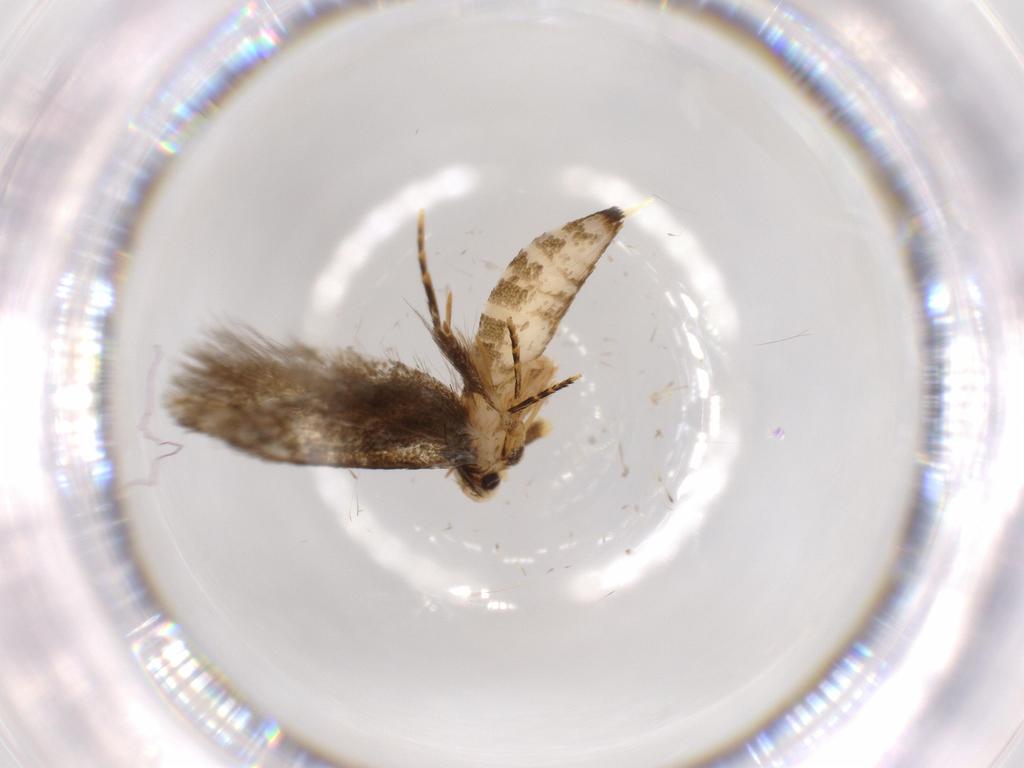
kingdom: Animalia
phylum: Arthropoda
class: Insecta
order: Lepidoptera
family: Tineidae
